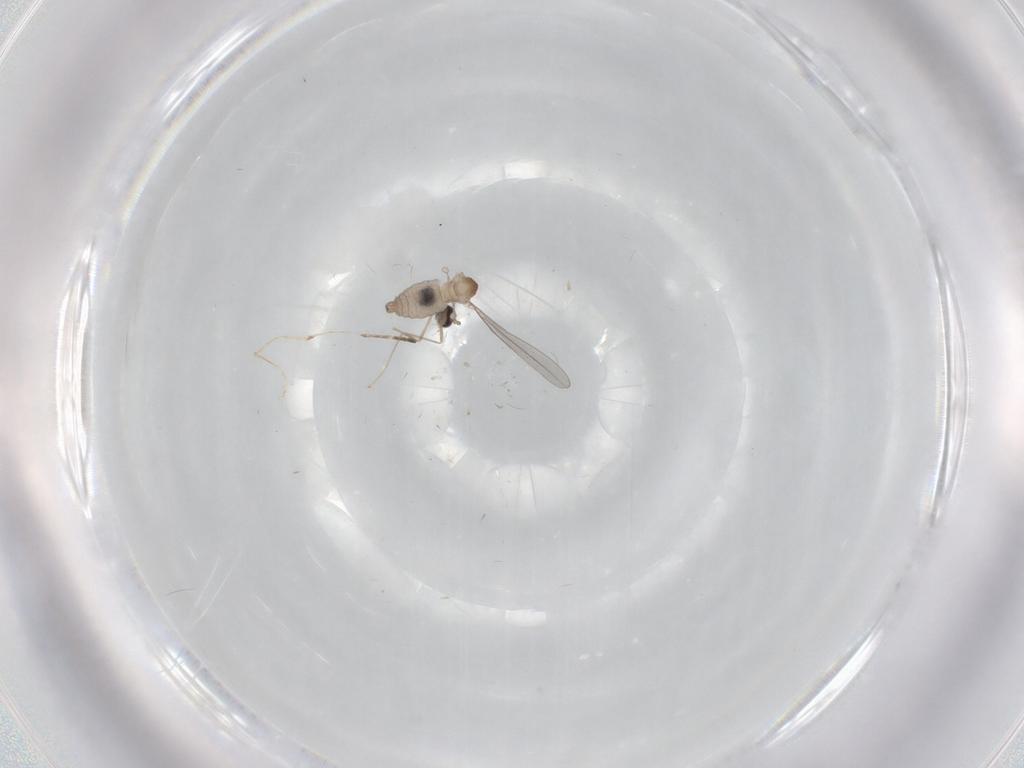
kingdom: Animalia
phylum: Arthropoda
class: Insecta
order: Diptera
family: Cecidomyiidae
